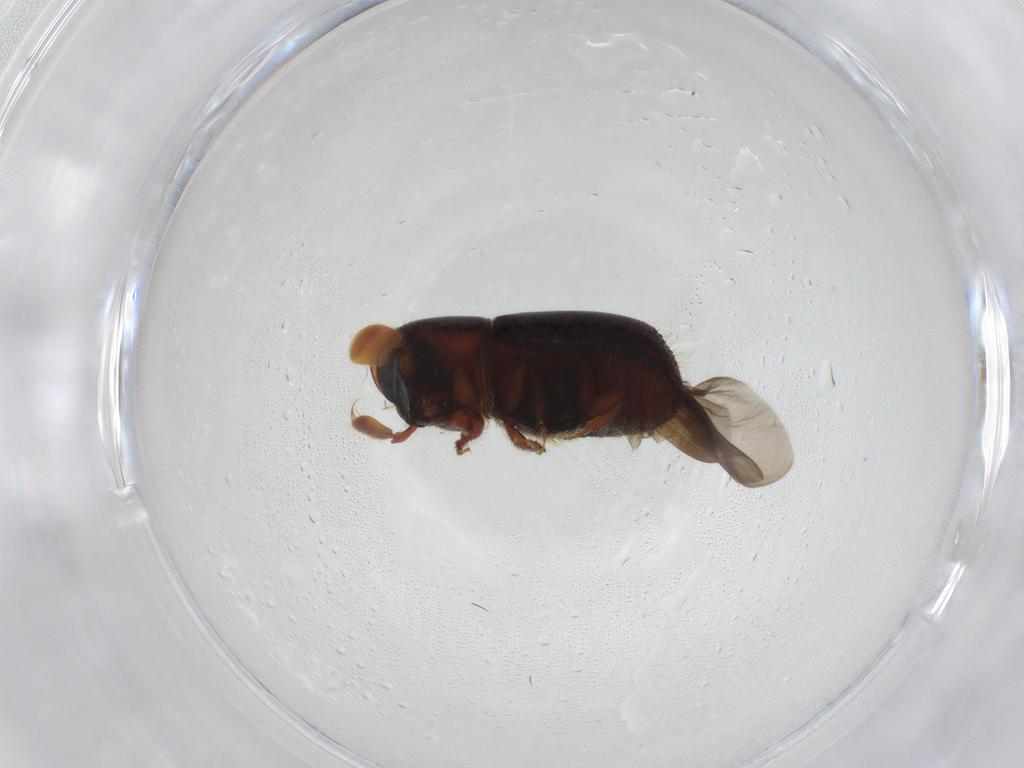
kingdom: Animalia
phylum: Arthropoda
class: Insecta
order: Coleoptera
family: Curculionidae
